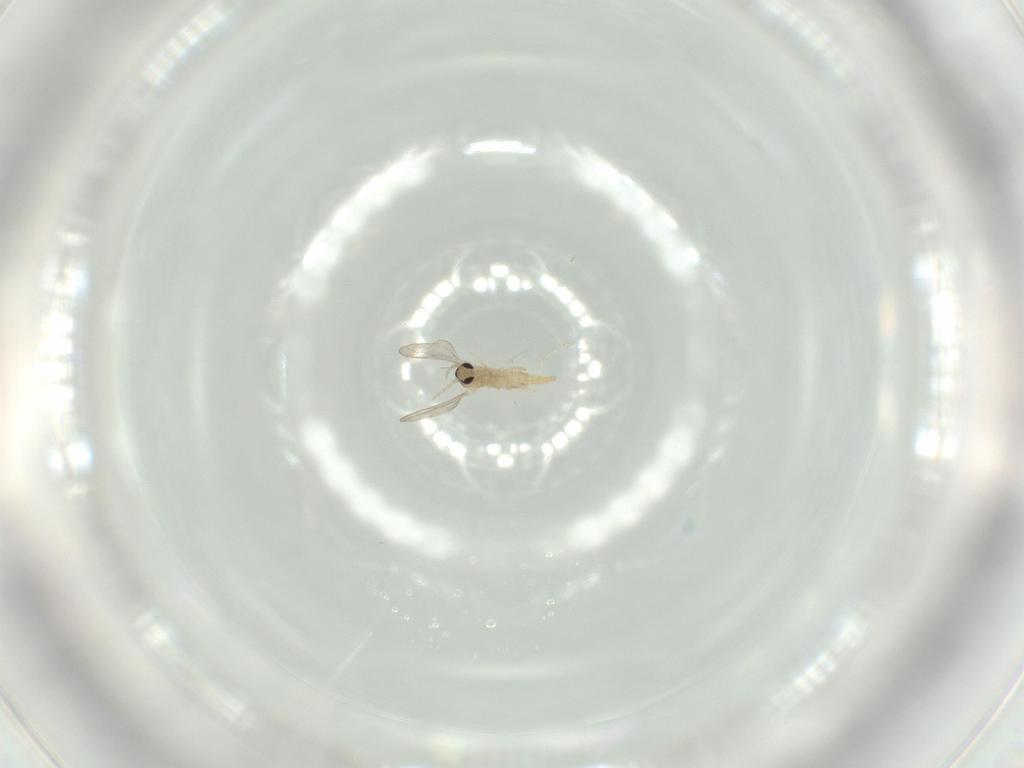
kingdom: Animalia
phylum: Arthropoda
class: Insecta
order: Diptera
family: Cecidomyiidae
